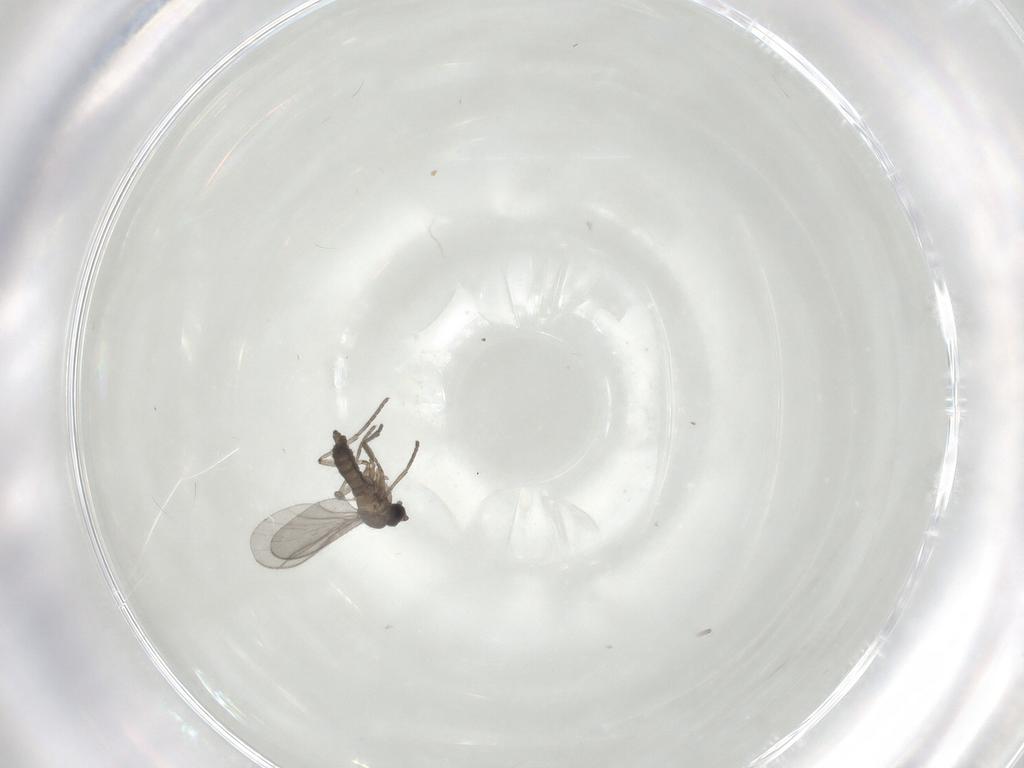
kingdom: Animalia
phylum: Arthropoda
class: Insecta
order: Diptera
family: Sciaridae
